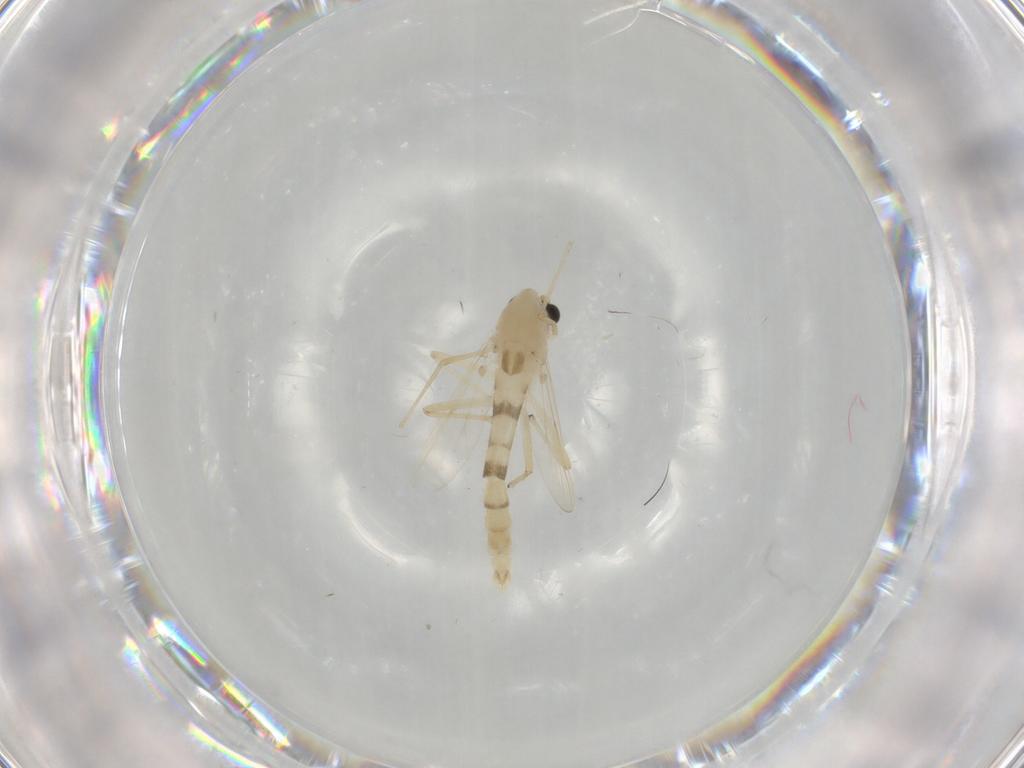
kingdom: Animalia
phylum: Arthropoda
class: Insecta
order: Diptera
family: Chironomidae
